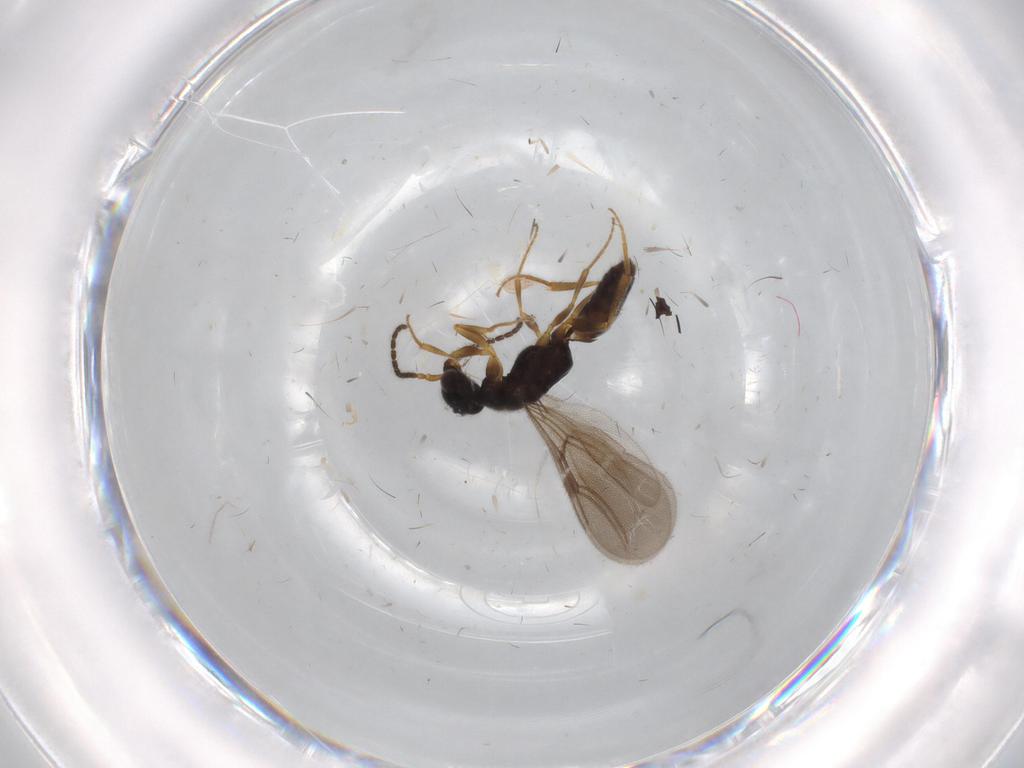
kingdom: Animalia
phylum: Arthropoda
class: Insecta
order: Hymenoptera
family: Bethylidae
